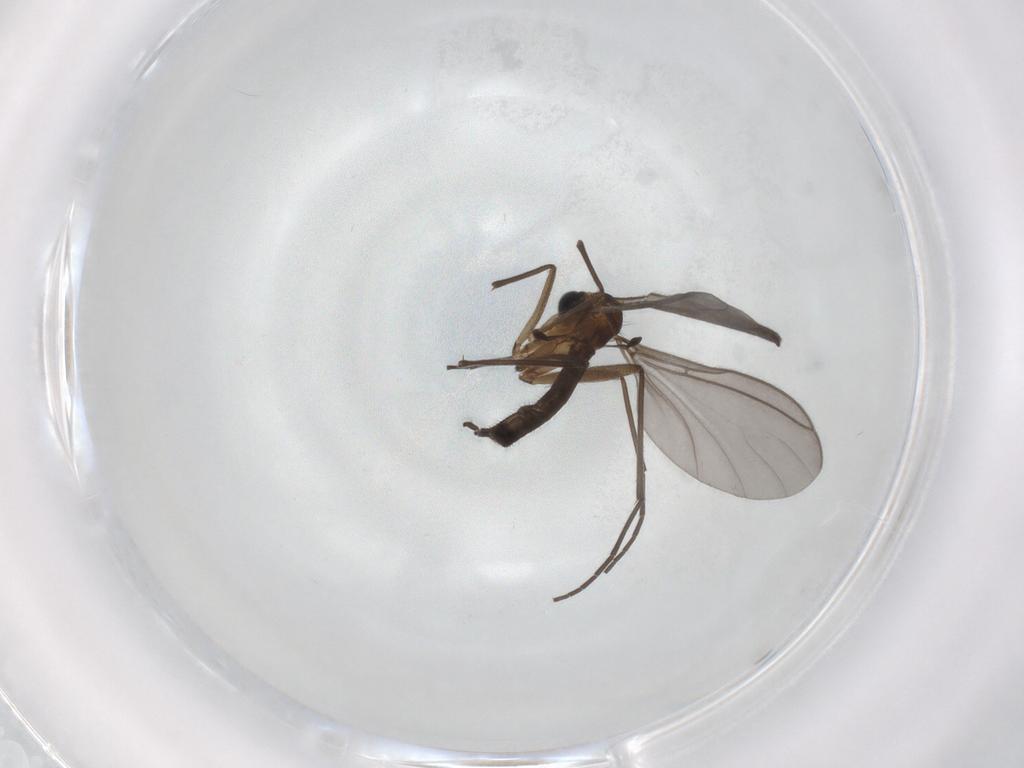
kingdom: Animalia
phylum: Arthropoda
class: Insecta
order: Diptera
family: Sciaridae
